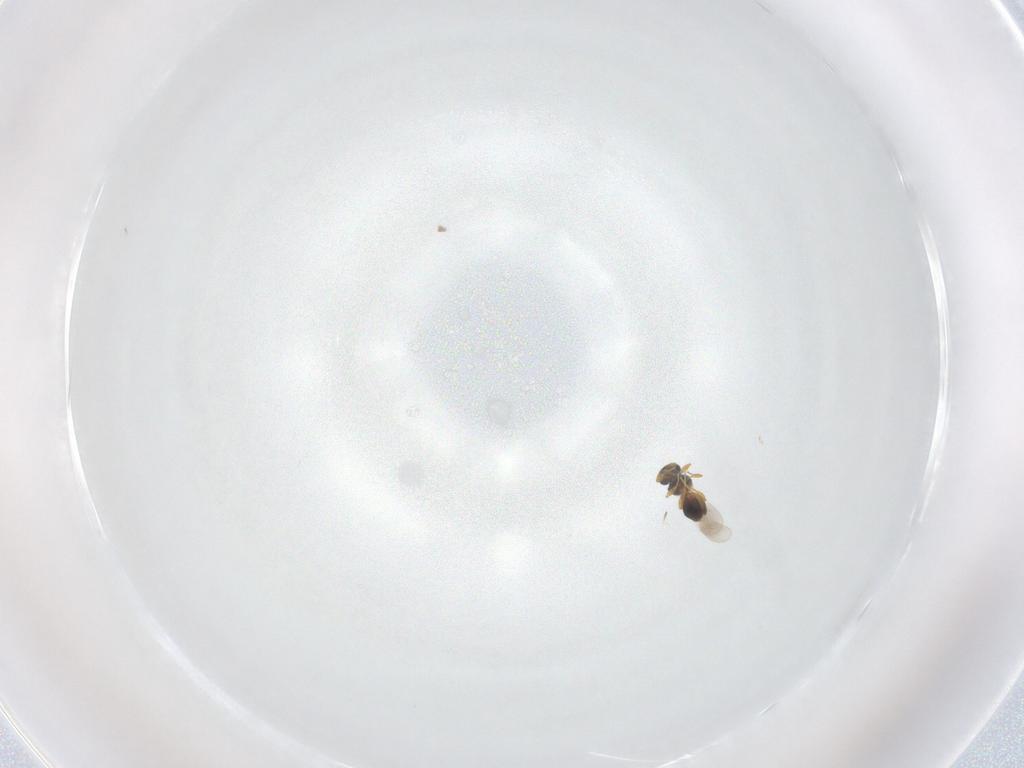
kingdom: Animalia
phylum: Arthropoda
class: Insecta
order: Hymenoptera
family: Platygastridae
